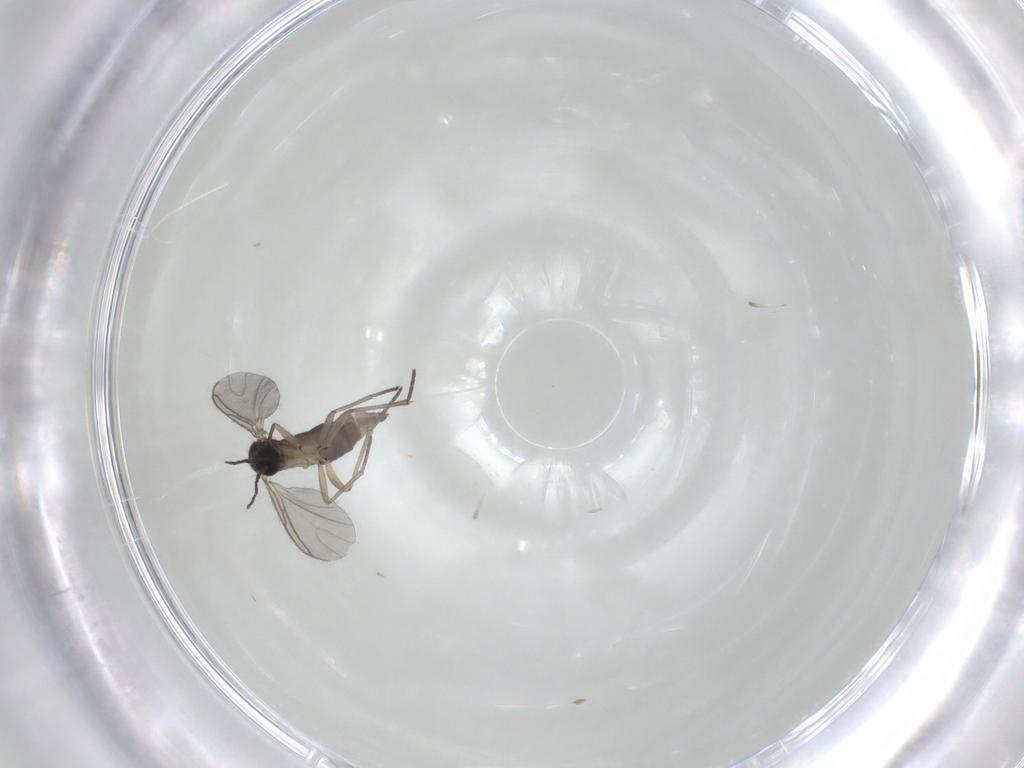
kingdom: Animalia
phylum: Arthropoda
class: Insecta
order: Diptera
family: Sciaridae
